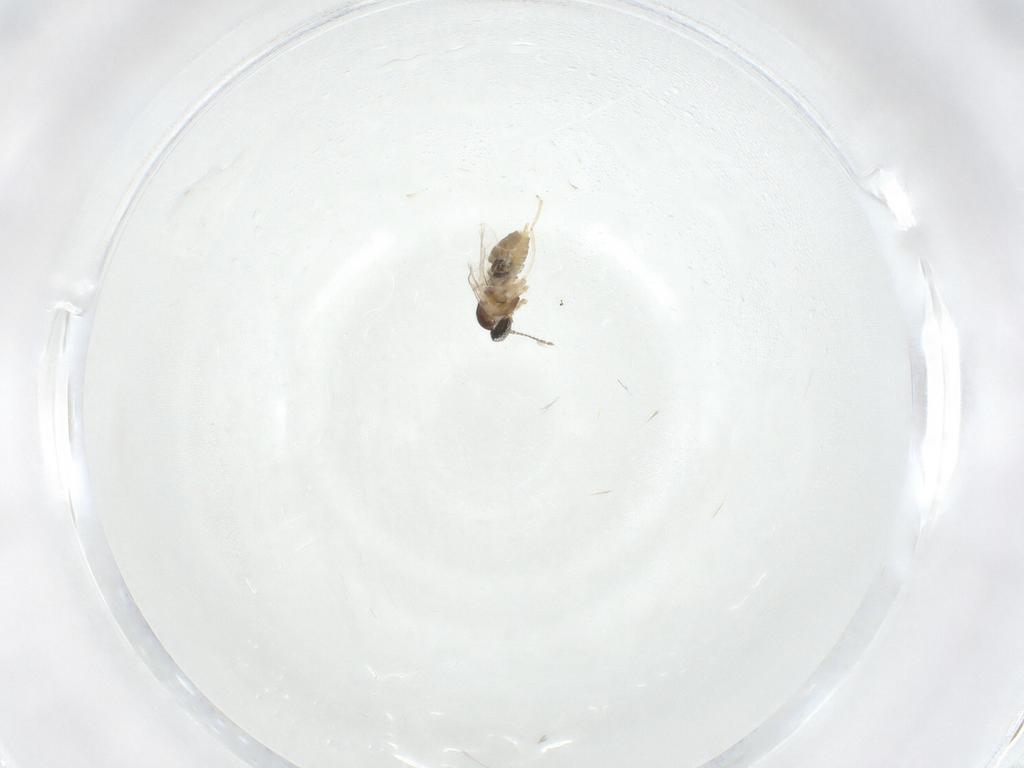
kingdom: Animalia
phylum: Arthropoda
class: Insecta
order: Diptera
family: Cecidomyiidae
